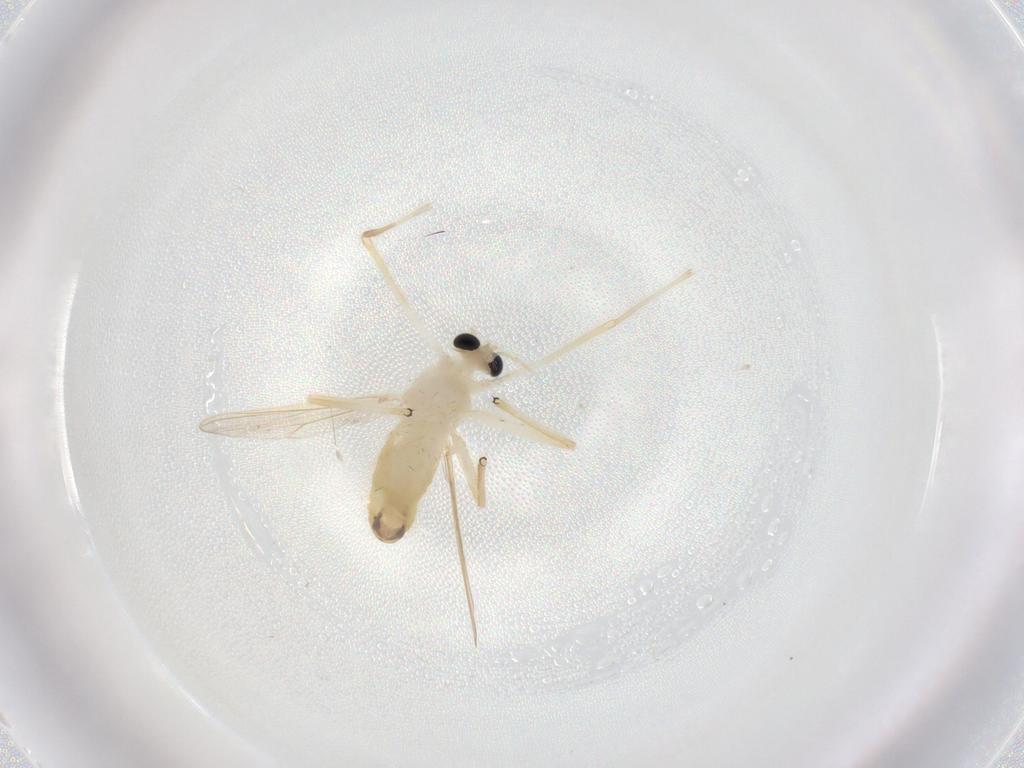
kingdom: Animalia
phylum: Arthropoda
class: Insecta
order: Diptera
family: Chironomidae
